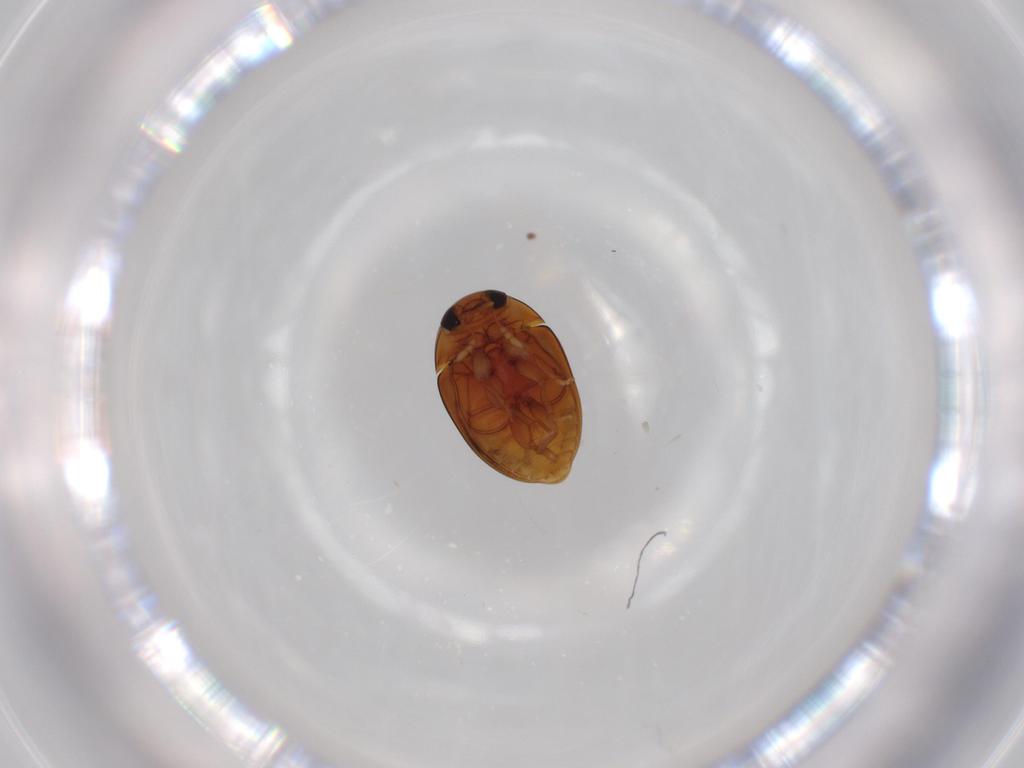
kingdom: Animalia
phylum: Arthropoda
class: Insecta
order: Coleoptera
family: Phalacridae
